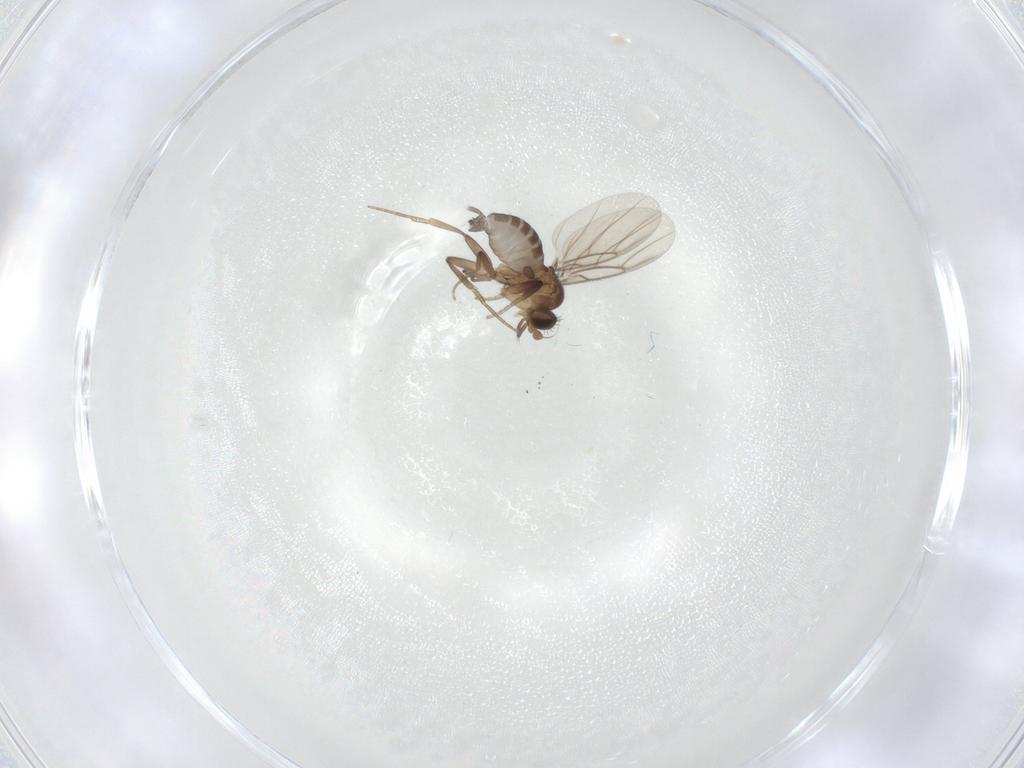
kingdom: Animalia
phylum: Arthropoda
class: Insecta
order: Diptera
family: Phoridae
